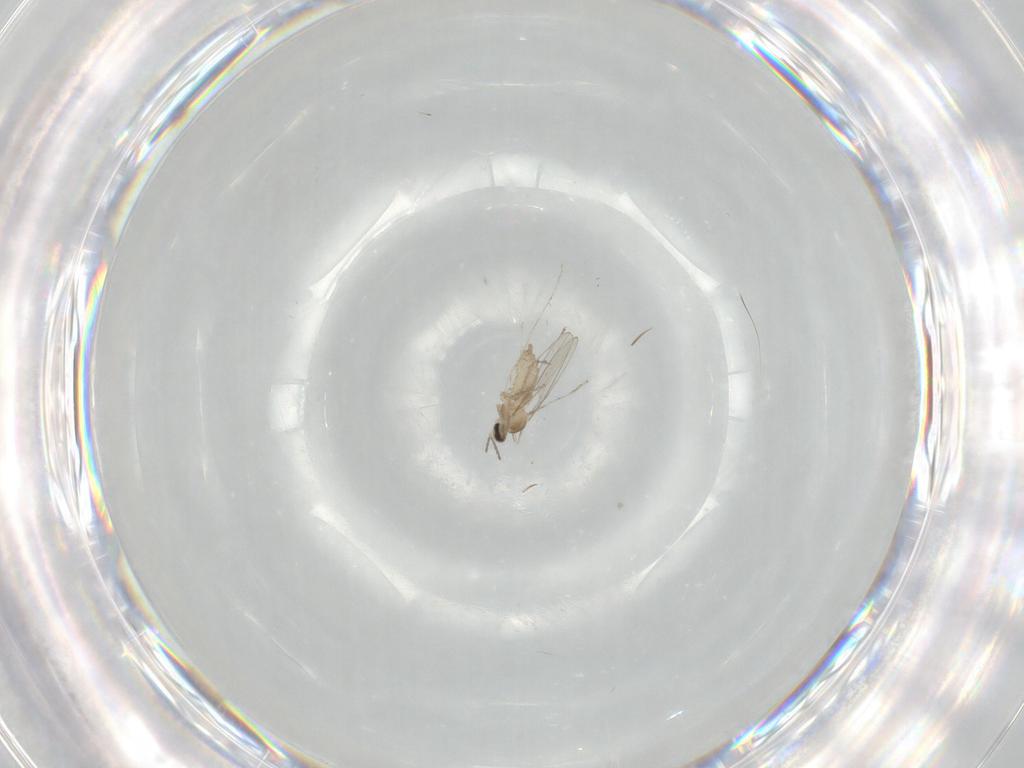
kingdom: Animalia
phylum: Arthropoda
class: Insecta
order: Diptera
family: Cecidomyiidae
